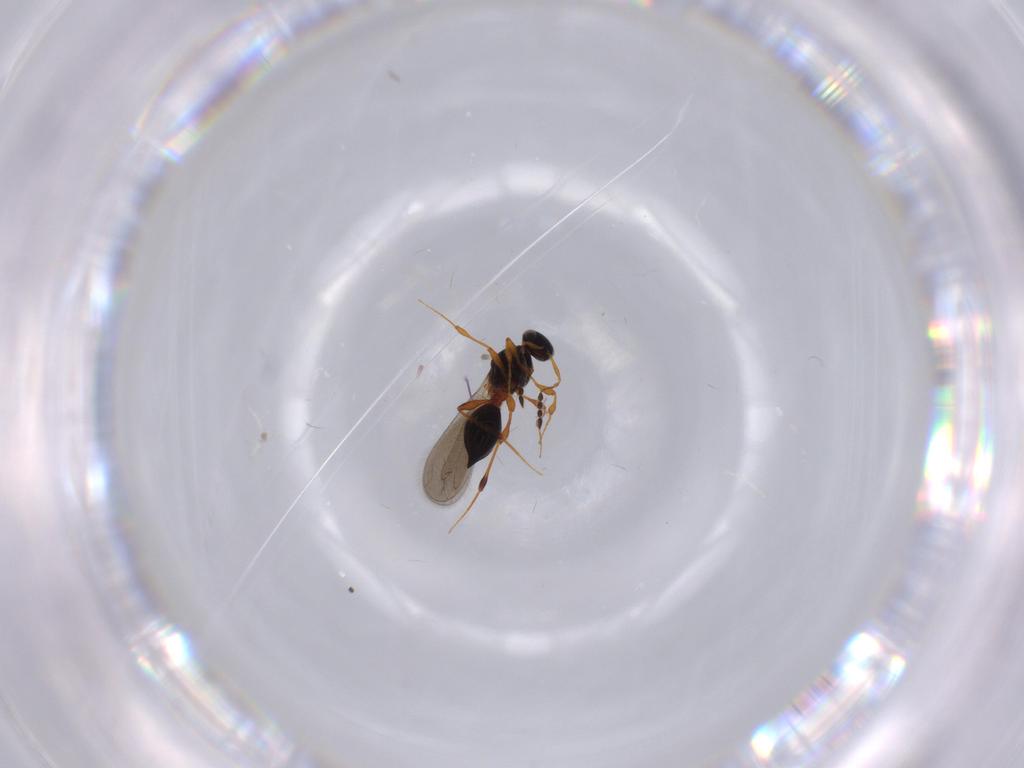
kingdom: Animalia
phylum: Arthropoda
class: Insecta
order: Hymenoptera
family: Platygastridae
